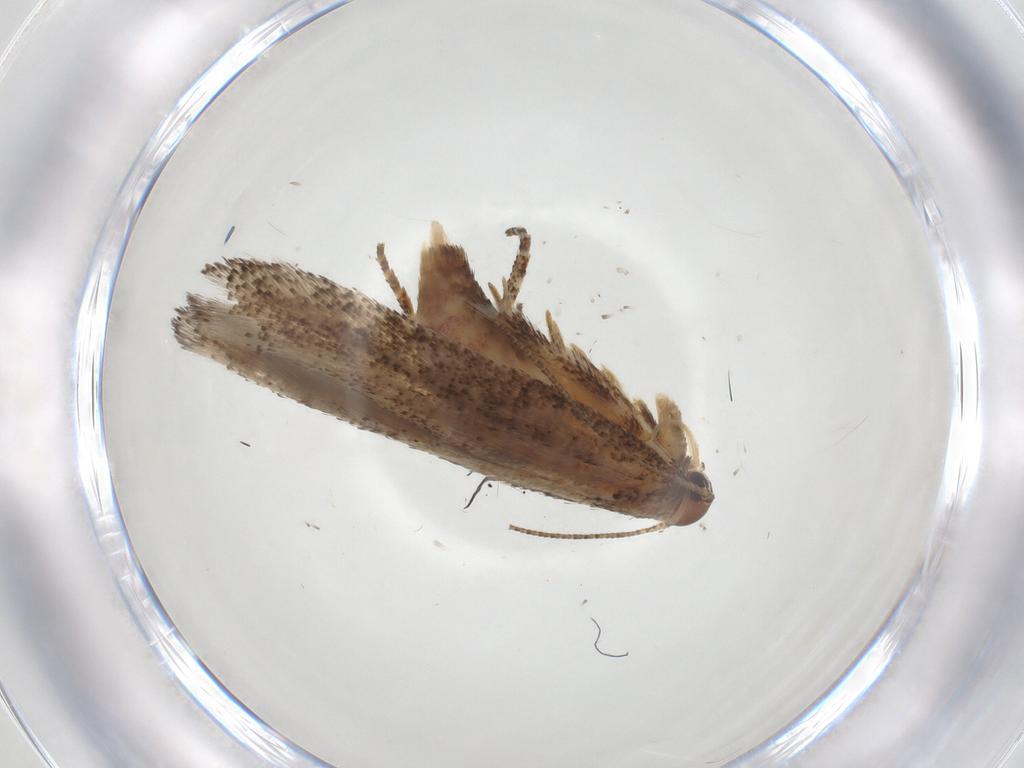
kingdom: Animalia
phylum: Arthropoda
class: Insecta
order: Lepidoptera
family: Gelechiidae
